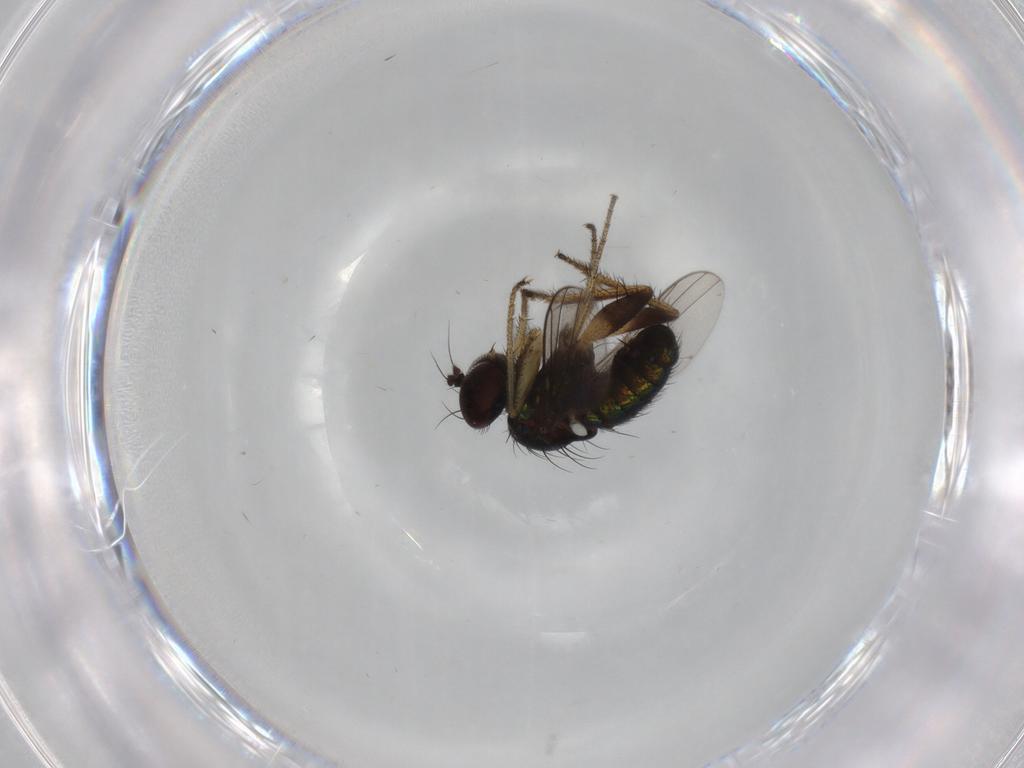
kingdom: Animalia
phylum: Arthropoda
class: Insecta
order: Diptera
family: Dolichopodidae
